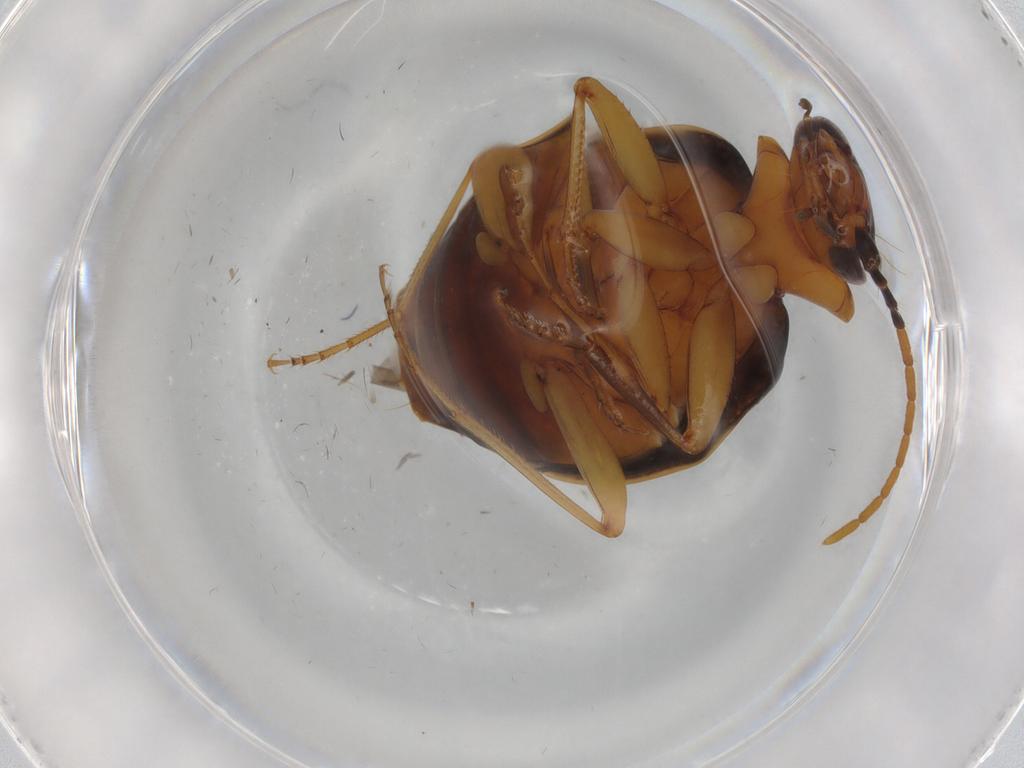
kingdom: Animalia
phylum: Arthropoda
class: Insecta
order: Coleoptera
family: Carabidae
